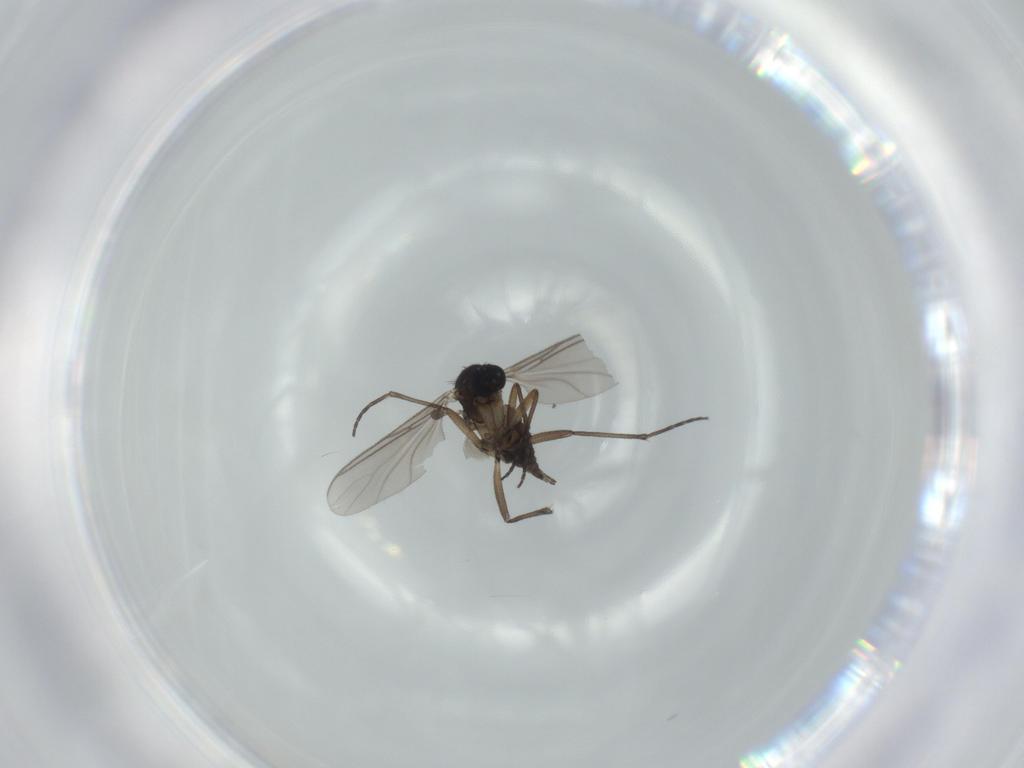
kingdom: Animalia
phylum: Arthropoda
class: Insecta
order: Diptera
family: Sciaridae
